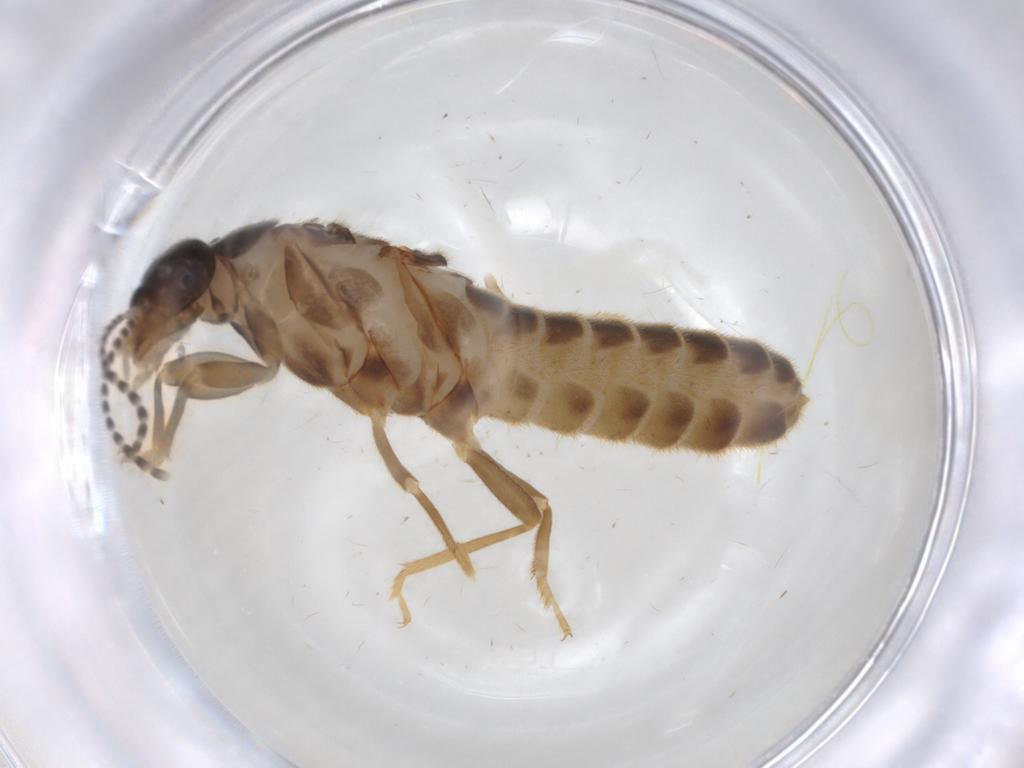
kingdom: Animalia
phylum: Arthropoda
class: Insecta
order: Blattodea
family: Termitidae
